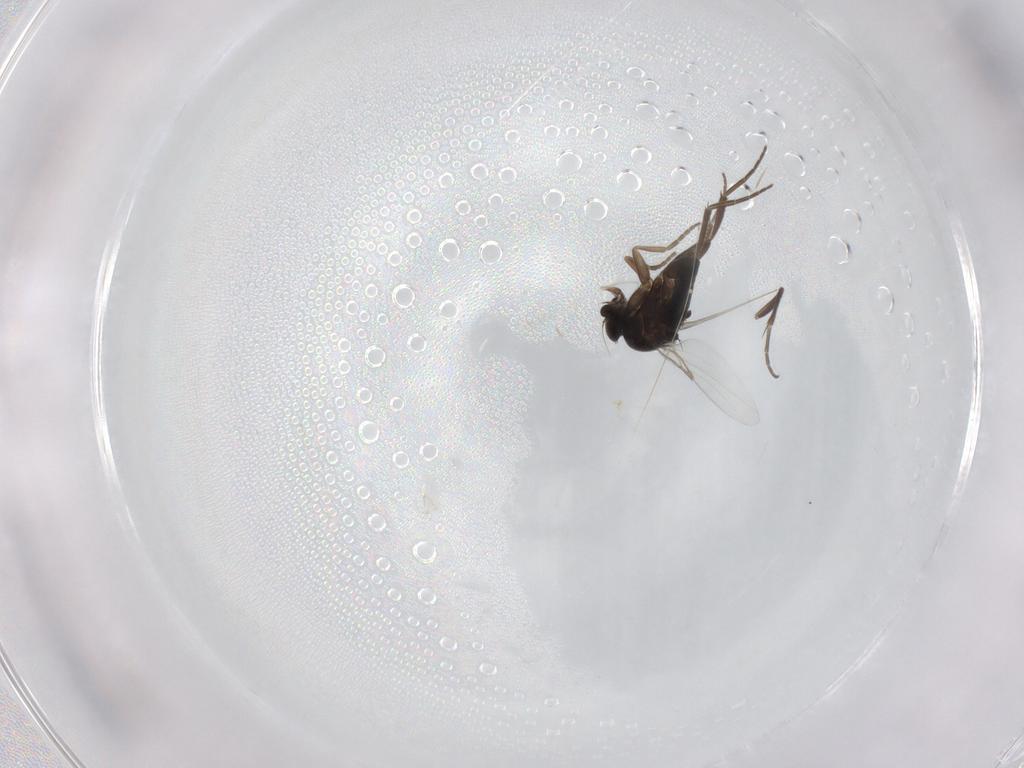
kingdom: Animalia
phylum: Arthropoda
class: Insecta
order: Diptera
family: Phoridae
